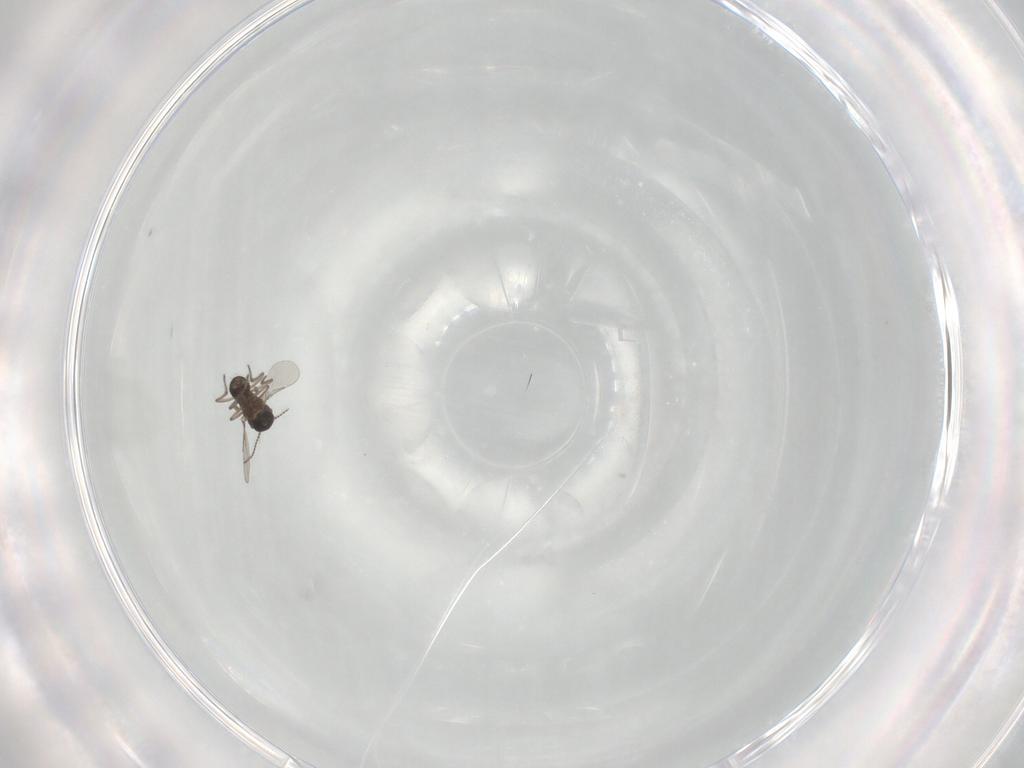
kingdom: Animalia
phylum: Arthropoda
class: Insecta
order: Diptera
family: Ceratopogonidae
